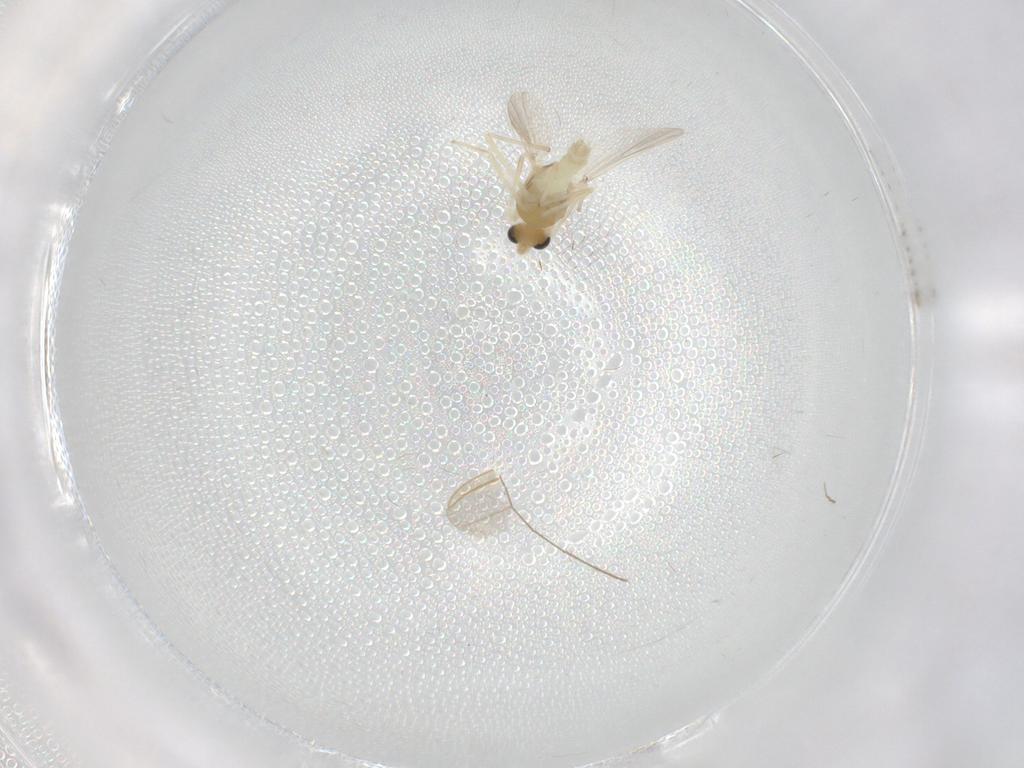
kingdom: Animalia
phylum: Arthropoda
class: Insecta
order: Diptera
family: Chironomidae
